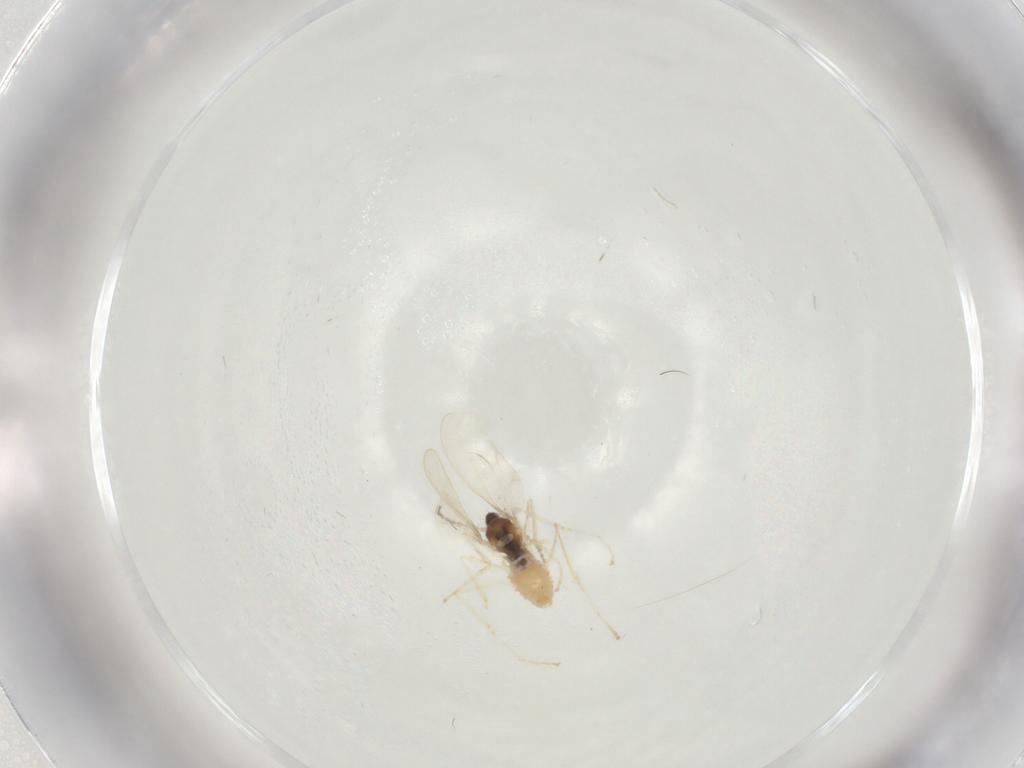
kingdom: Animalia
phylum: Arthropoda
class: Insecta
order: Diptera
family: Cecidomyiidae
